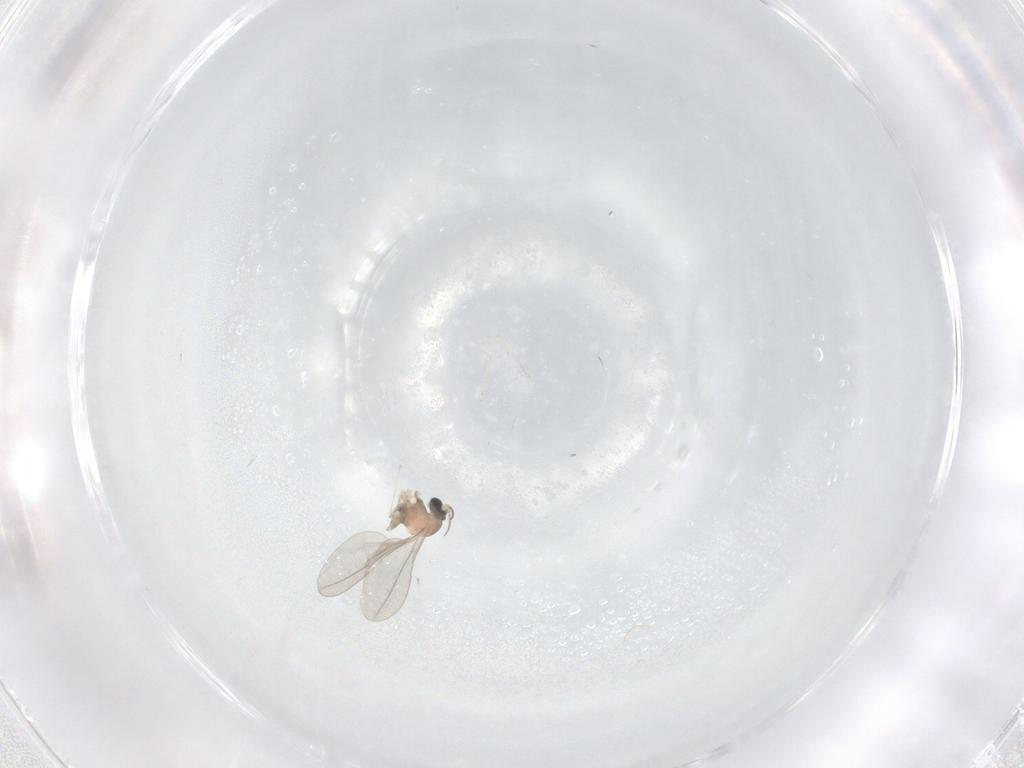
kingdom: Animalia
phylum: Arthropoda
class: Insecta
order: Diptera
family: Cecidomyiidae
